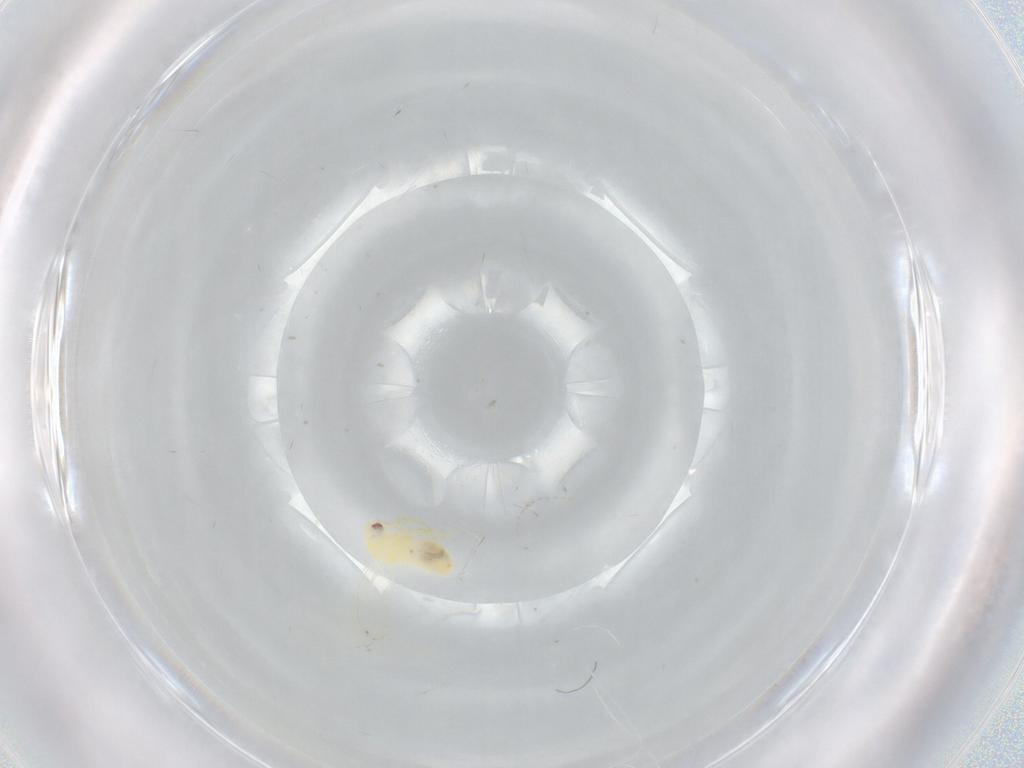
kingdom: Animalia
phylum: Arthropoda
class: Insecta
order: Hemiptera
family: Aleyrodidae
